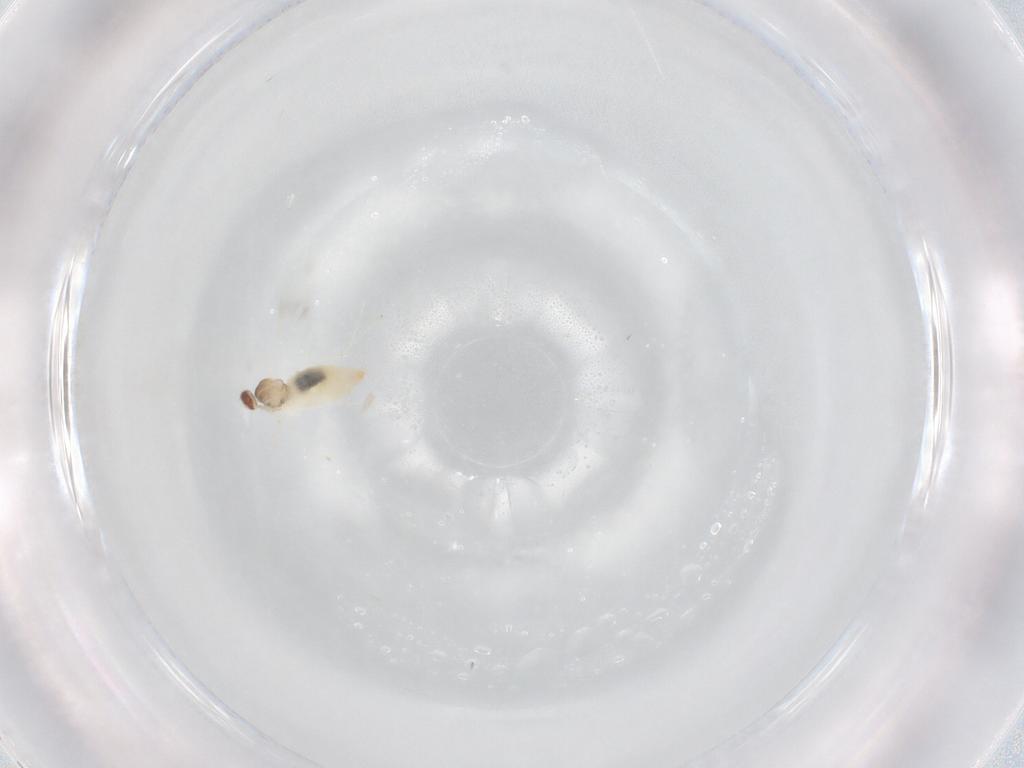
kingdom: Animalia
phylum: Arthropoda
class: Insecta
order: Diptera
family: Cecidomyiidae
